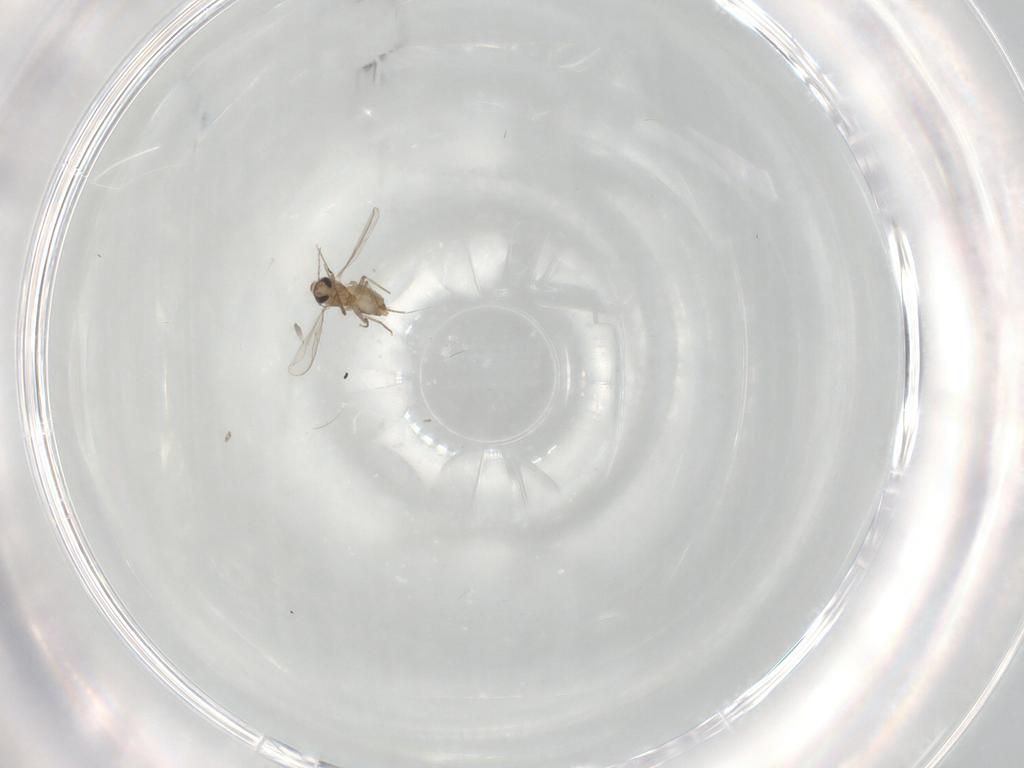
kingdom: Animalia
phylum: Arthropoda
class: Insecta
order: Diptera
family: Chironomidae
